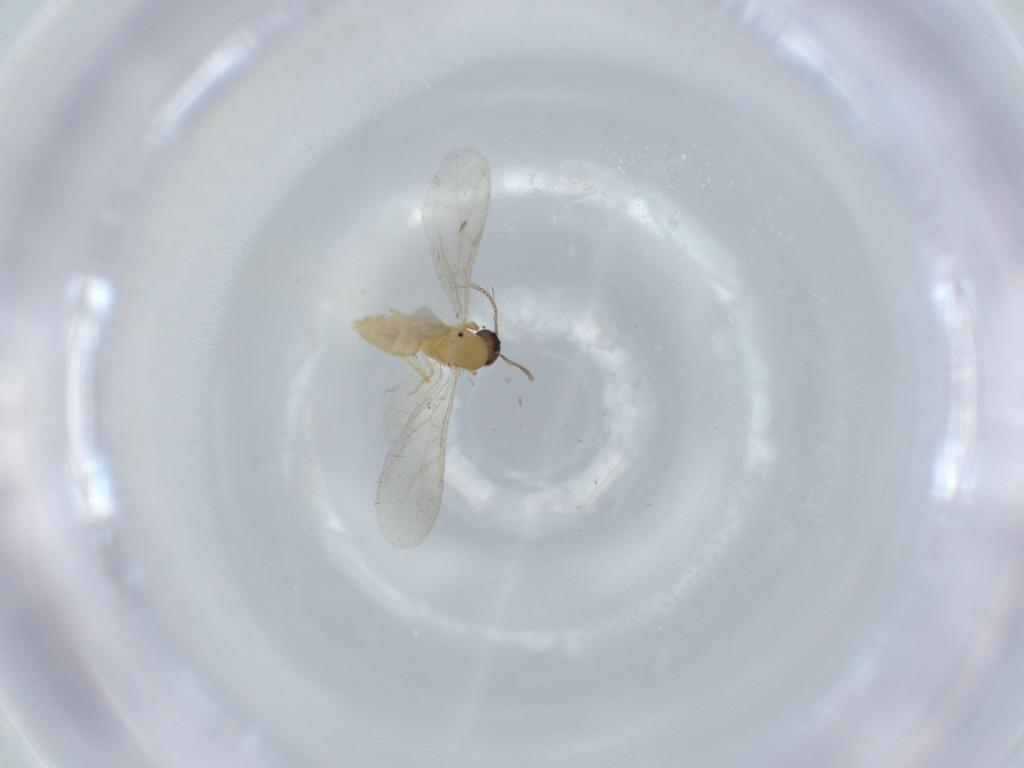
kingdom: Animalia
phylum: Arthropoda
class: Insecta
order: Hymenoptera
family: Formicidae
